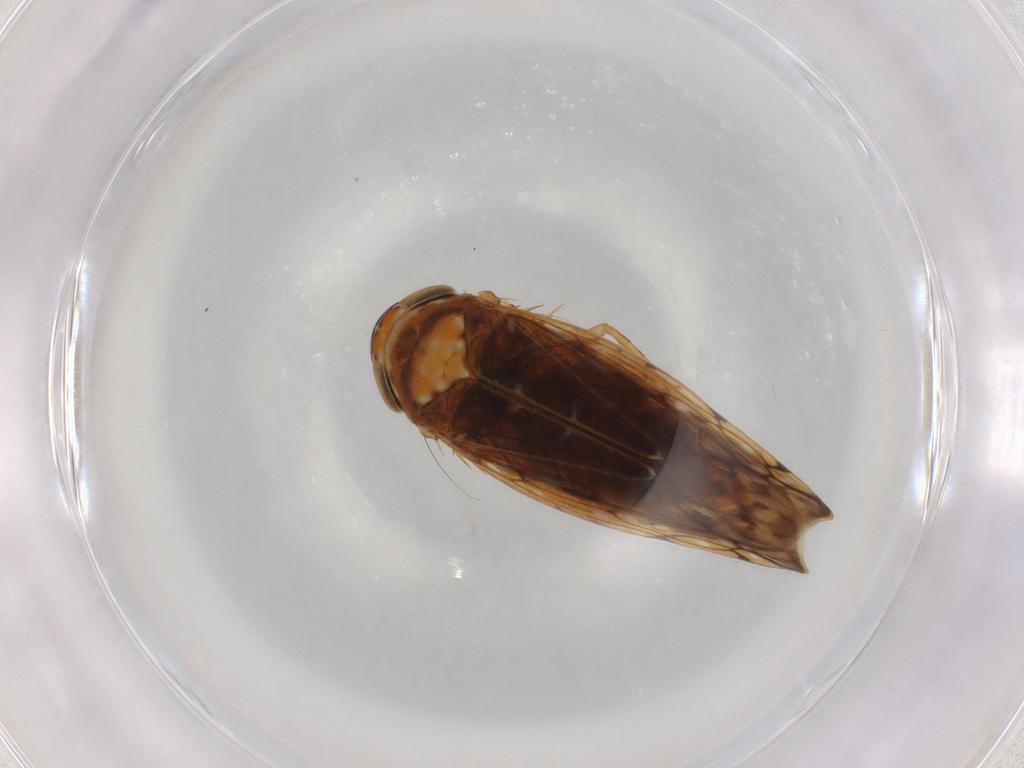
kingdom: Animalia
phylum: Arthropoda
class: Insecta
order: Hemiptera
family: Cicadellidae
